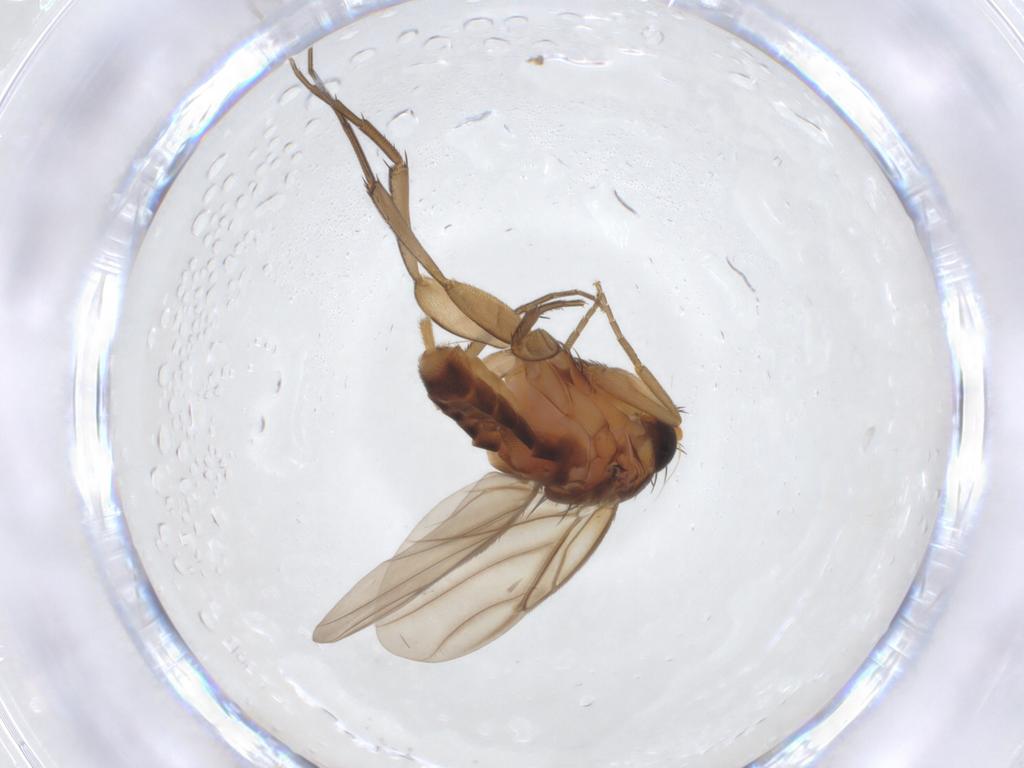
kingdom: Animalia
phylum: Arthropoda
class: Insecta
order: Diptera
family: Phoridae
